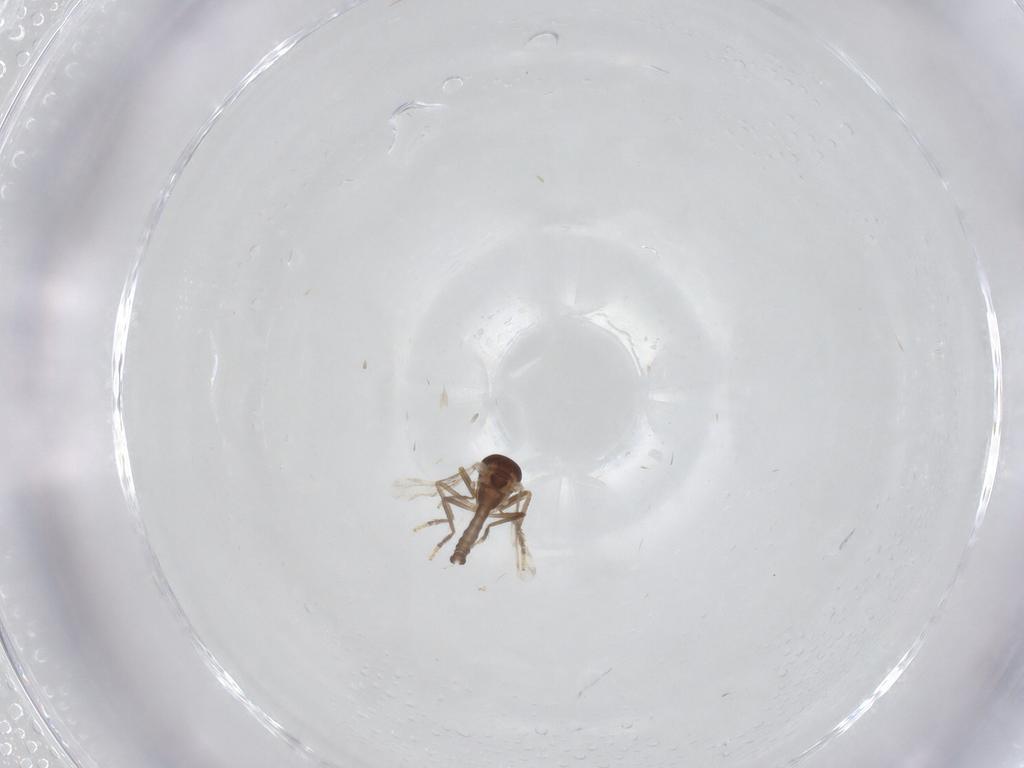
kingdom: Animalia
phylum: Arthropoda
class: Insecta
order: Diptera
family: Ceratopogonidae
